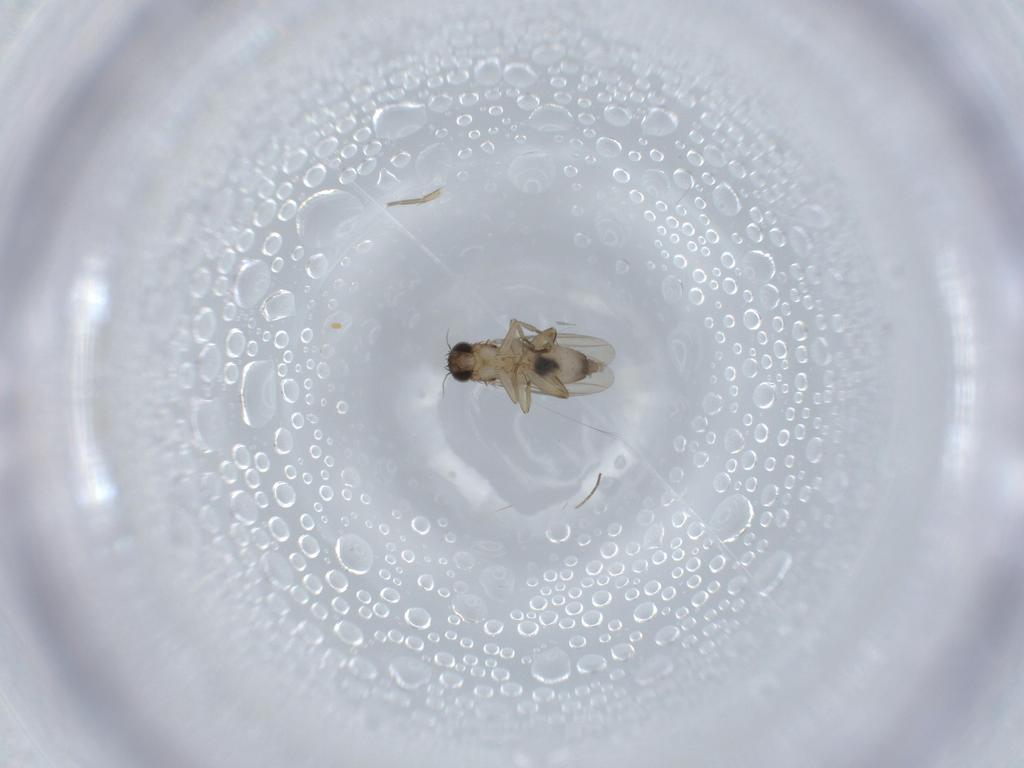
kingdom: Animalia
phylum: Arthropoda
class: Insecta
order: Diptera
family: Phoridae
